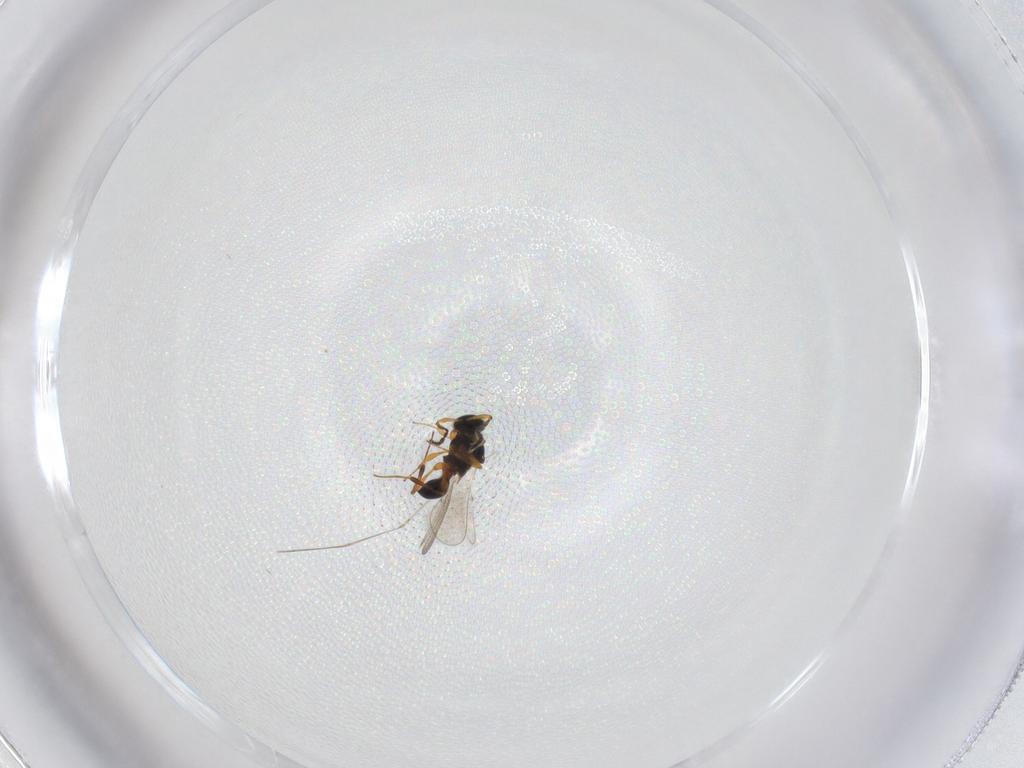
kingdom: Animalia
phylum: Arthropoda
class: Insecta
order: Hymenoptera
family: Platygastridae
